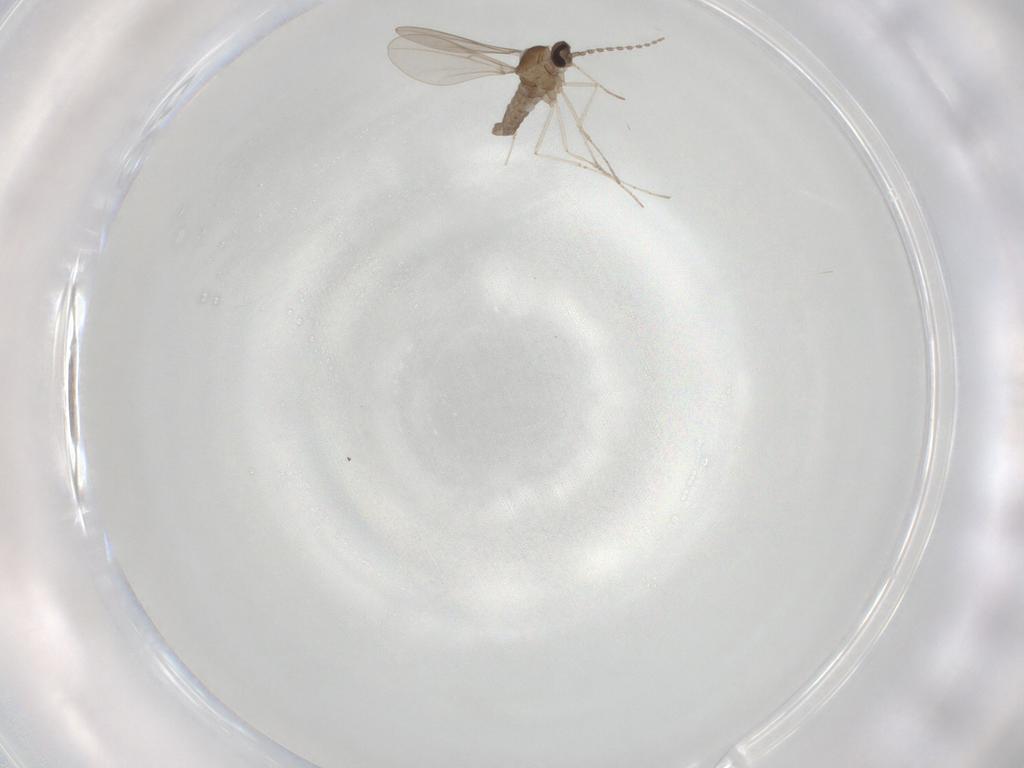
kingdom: Animalia
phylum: Arthropoda
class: Insecta
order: Diptera
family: Cecidomyiidae
